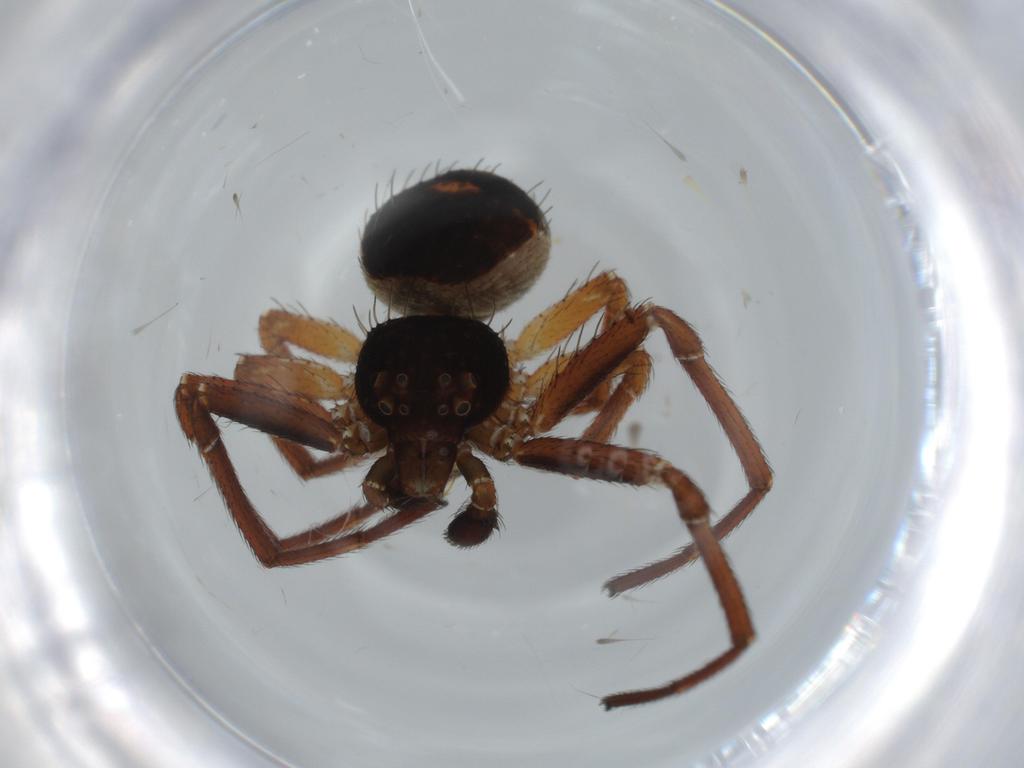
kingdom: Animalia
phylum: Arthropoda
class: Arachnida
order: Araneae
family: Thomisidae
